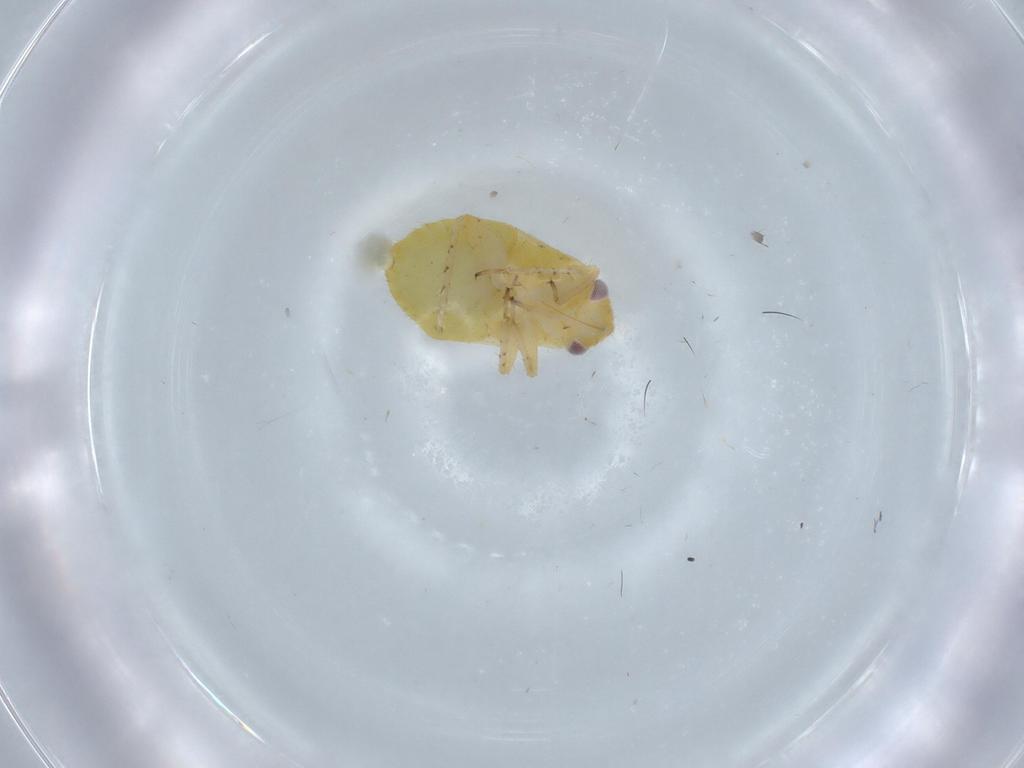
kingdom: Animalia
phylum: Arthropoda
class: Insecta
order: Hemiptera
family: Miridae
